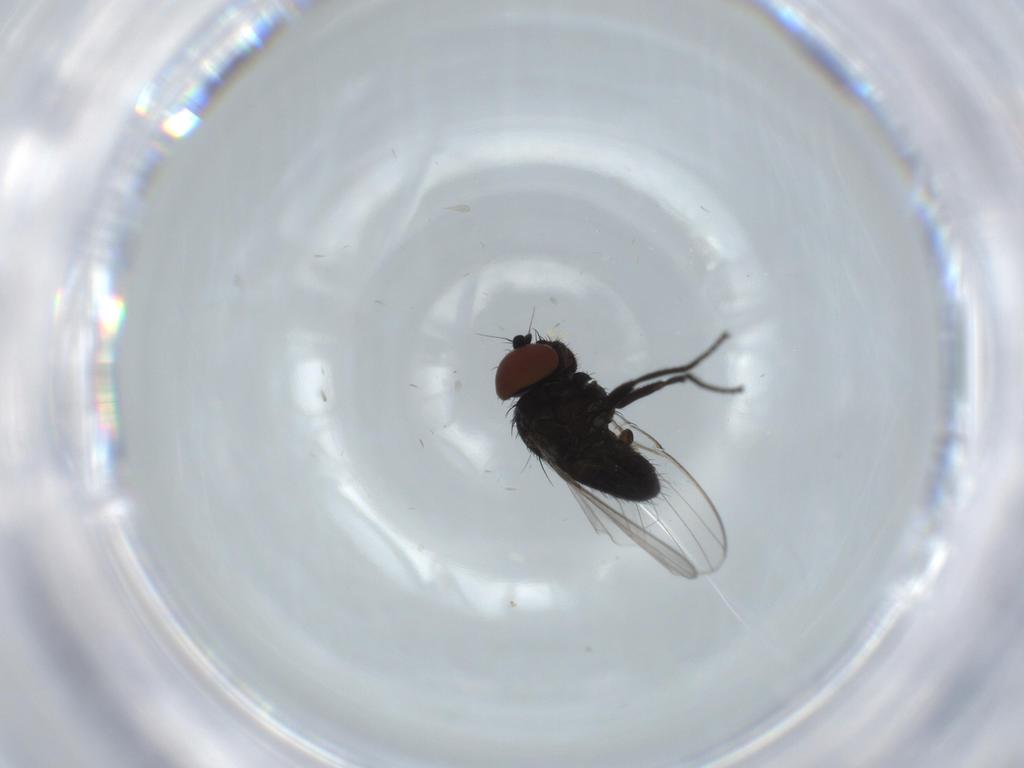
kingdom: Animalia
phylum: Arthropoda
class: Insecta
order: Diptera
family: Milichiidae
